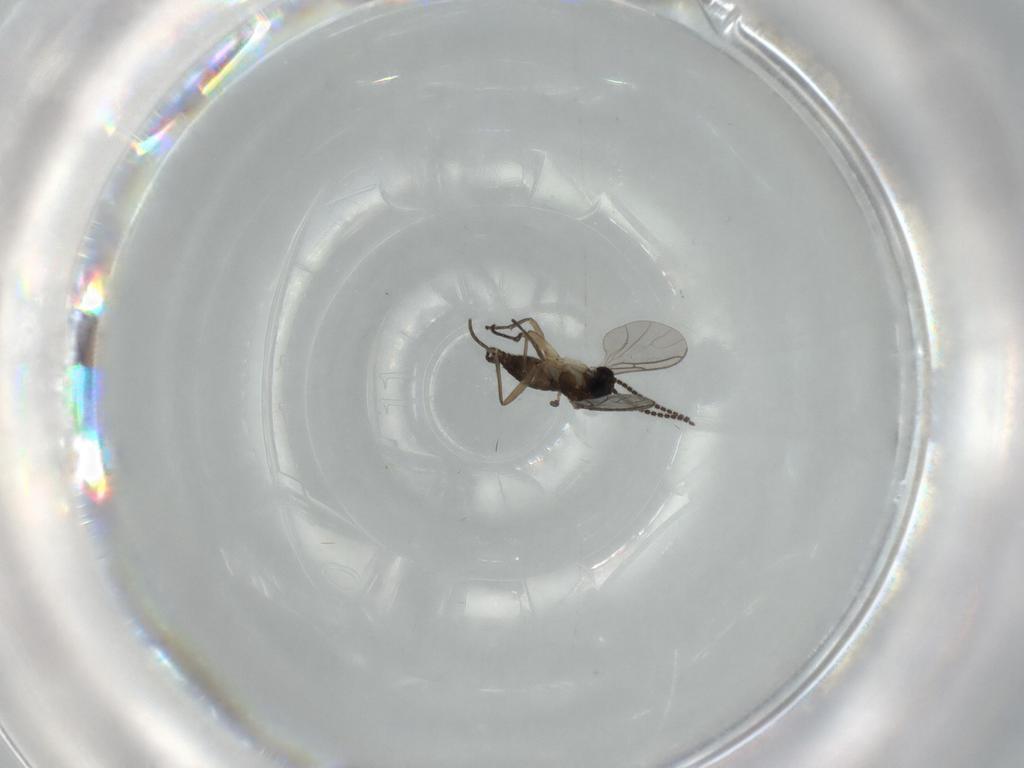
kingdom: Animalia
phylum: Arthropoda
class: Insecta
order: Diptera
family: Sciaridae
